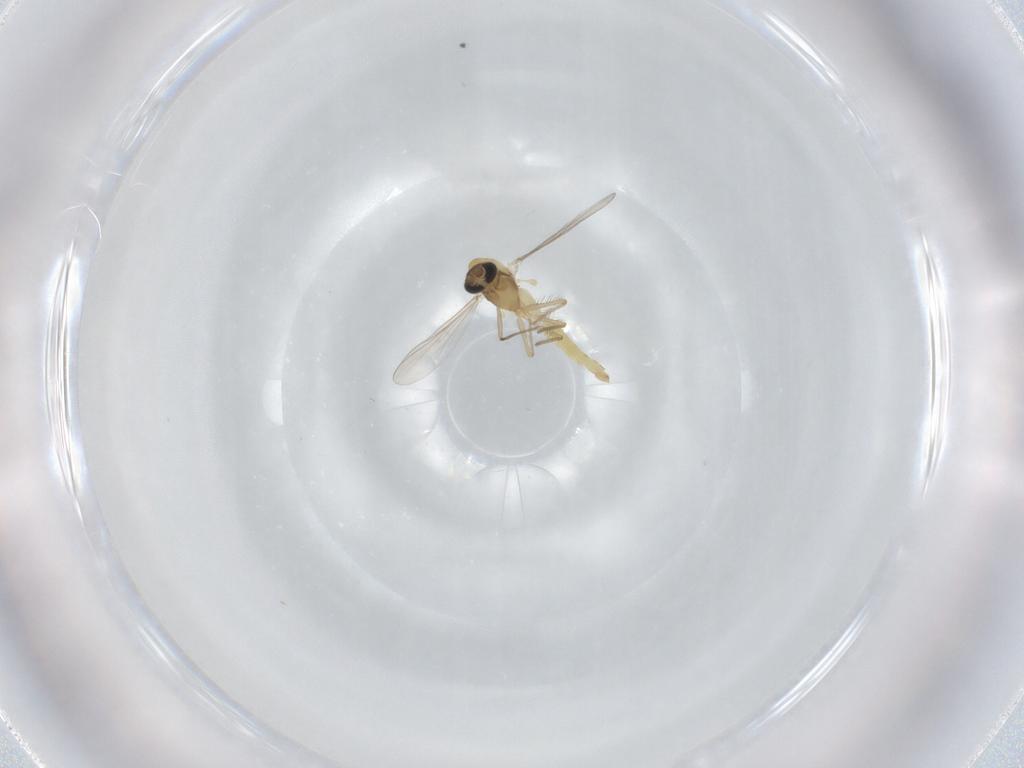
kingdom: Animalia
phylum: Arthropoda
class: Insecta
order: Diptera
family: Sciaridae
